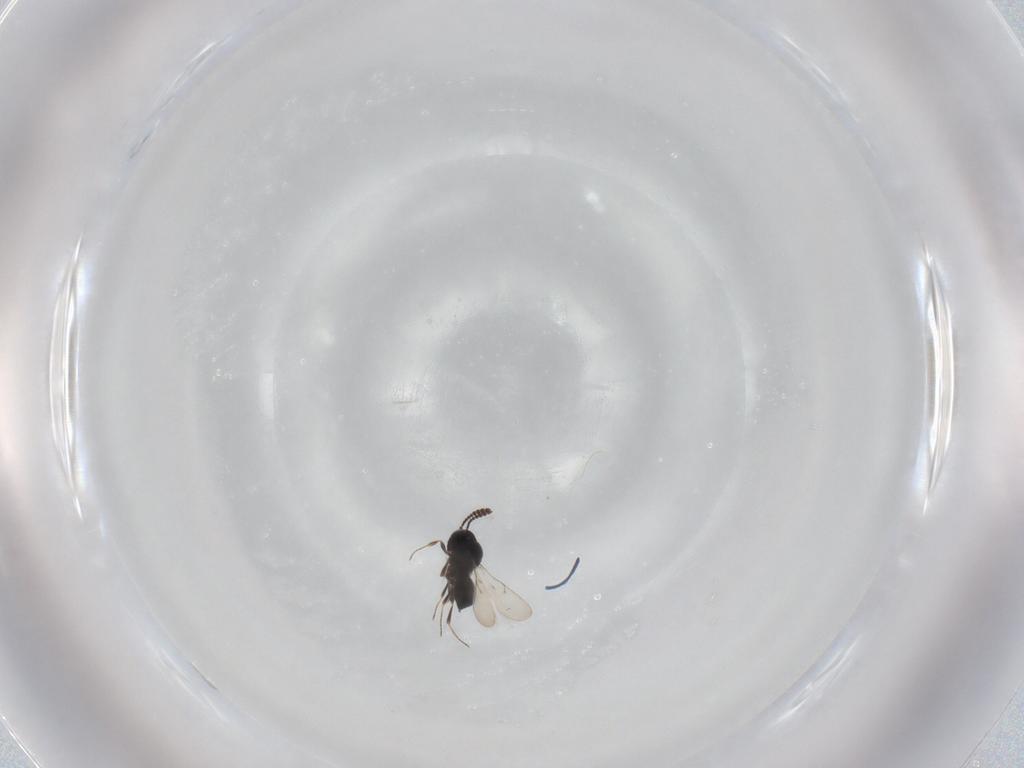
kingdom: Animalia
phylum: Arthropoda
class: Insecta
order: Hymenoptera
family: Scelionidae
